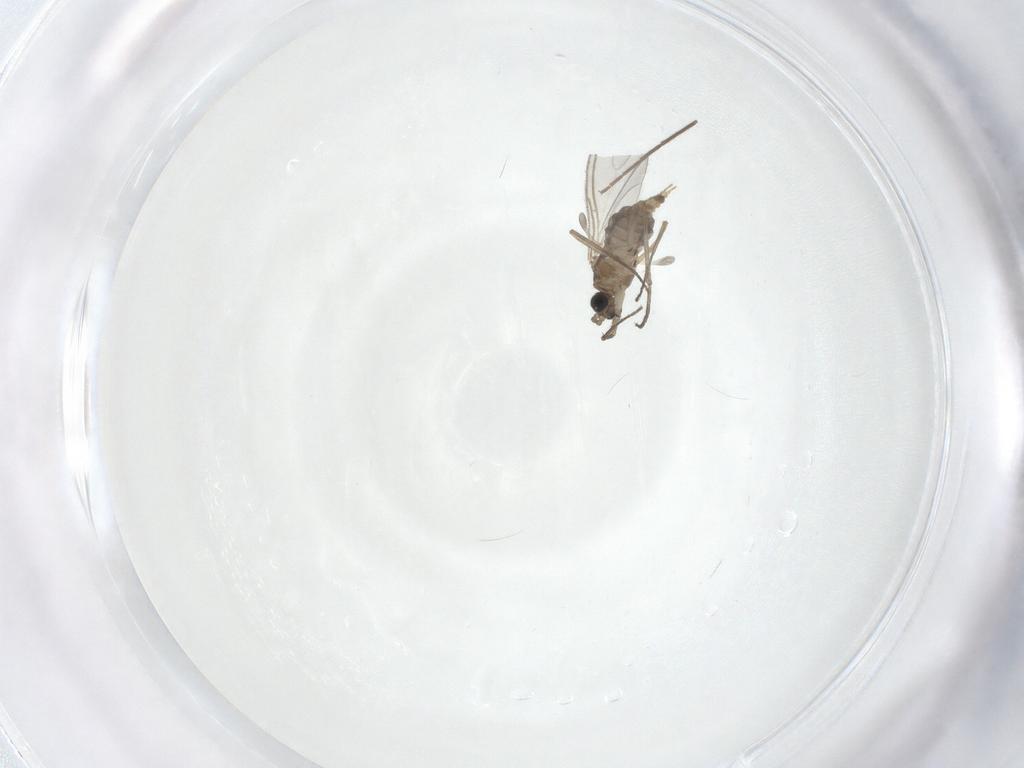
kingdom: Animalia
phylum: Arthropoda
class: Insecta
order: Diptera
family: Sciaridae
